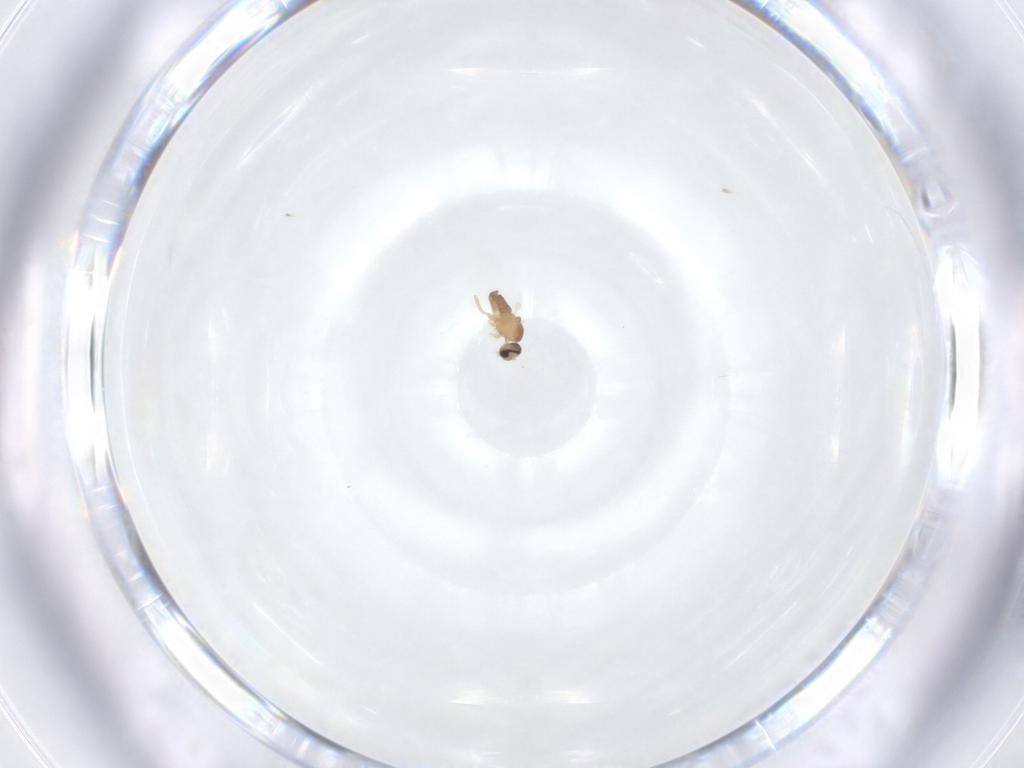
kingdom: Animalia
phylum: Arthropoda
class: Insecta
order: Diptera
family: Cecidomyiidae
